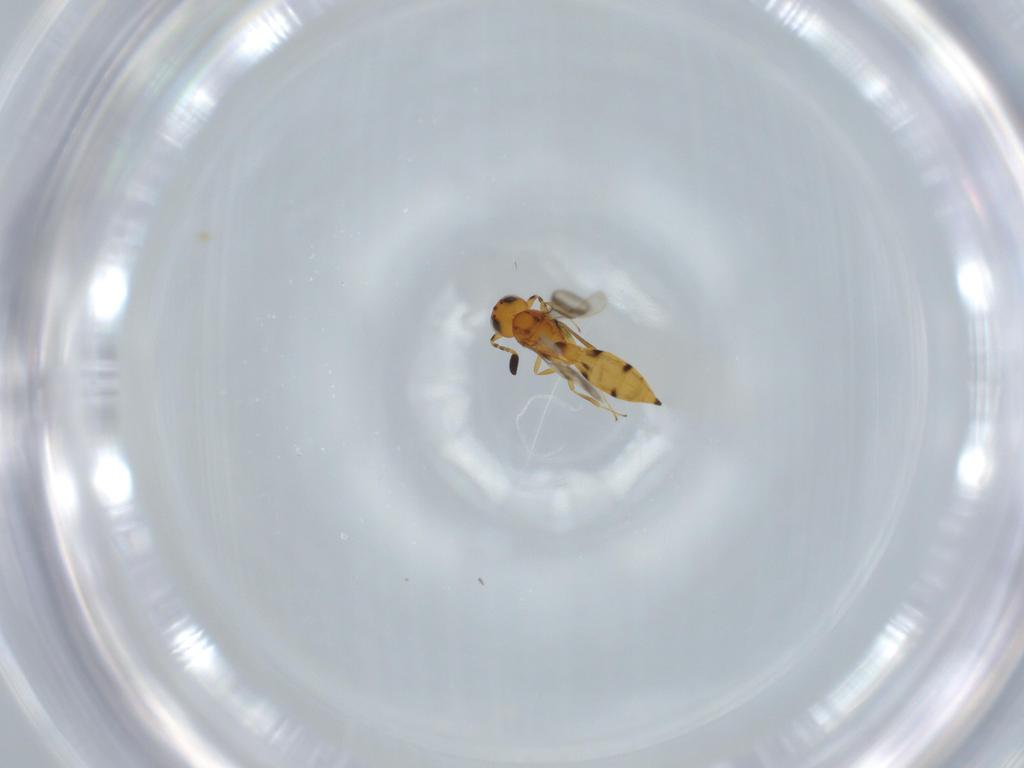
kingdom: Animalia
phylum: Arthropoda
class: Insecta
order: Hymenoptera
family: Scelionidae
